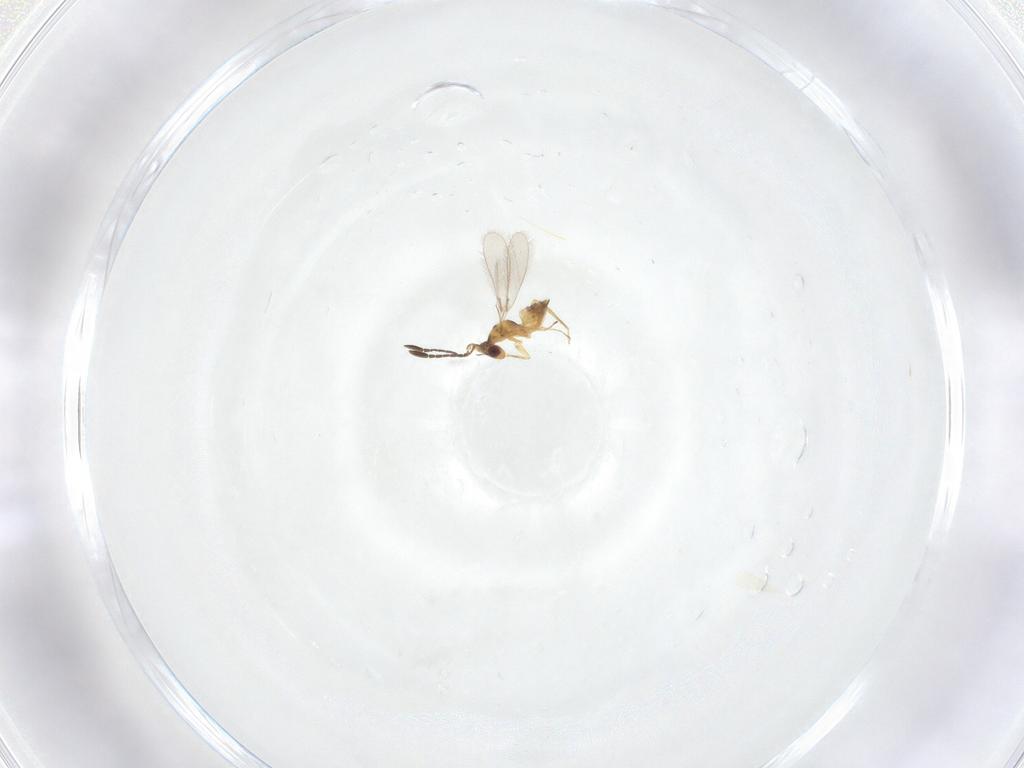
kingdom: Animalia
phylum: Arthropoda
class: Insecta
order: Hymenoptera
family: Mymaridae
